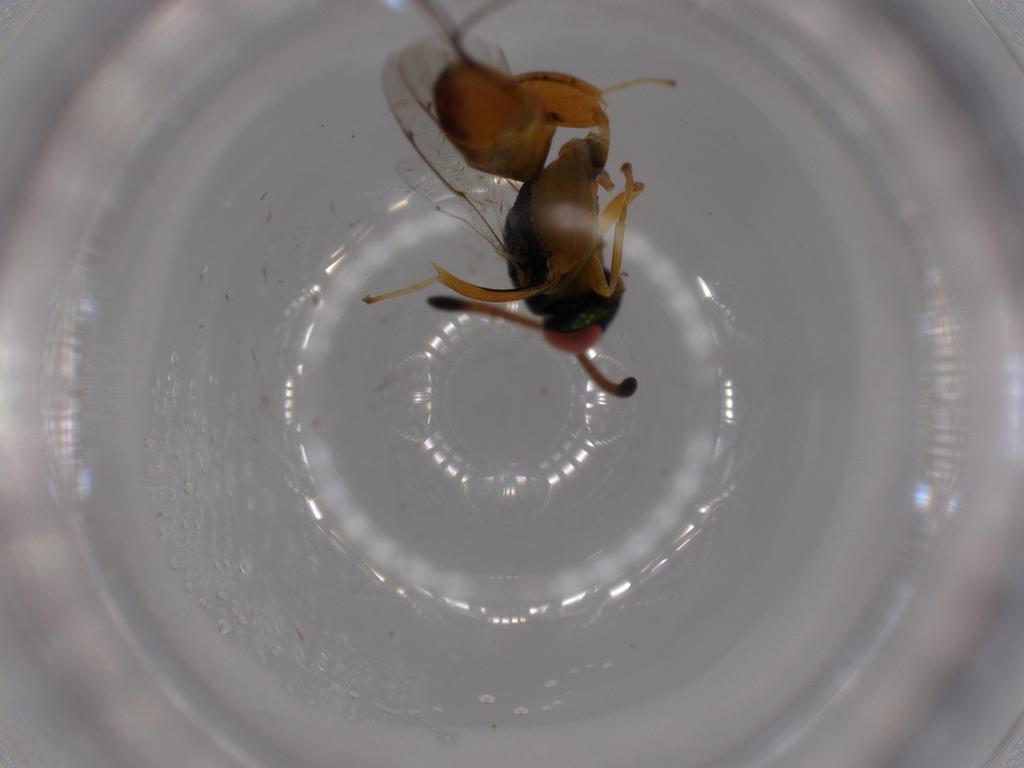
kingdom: Animalia
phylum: Arthropoda
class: Insecta
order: Hymenoptera
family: Torymidae
